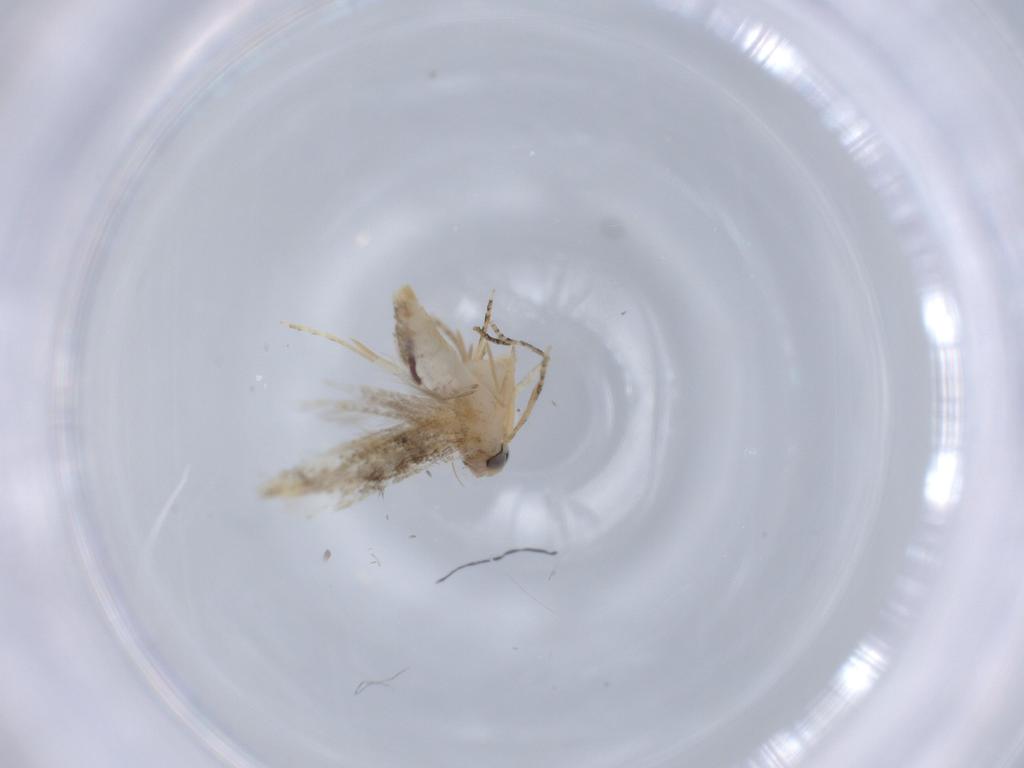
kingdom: Animalia
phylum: Arthropoda
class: Insecta
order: Lepidoptera
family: Bucculatricidae
